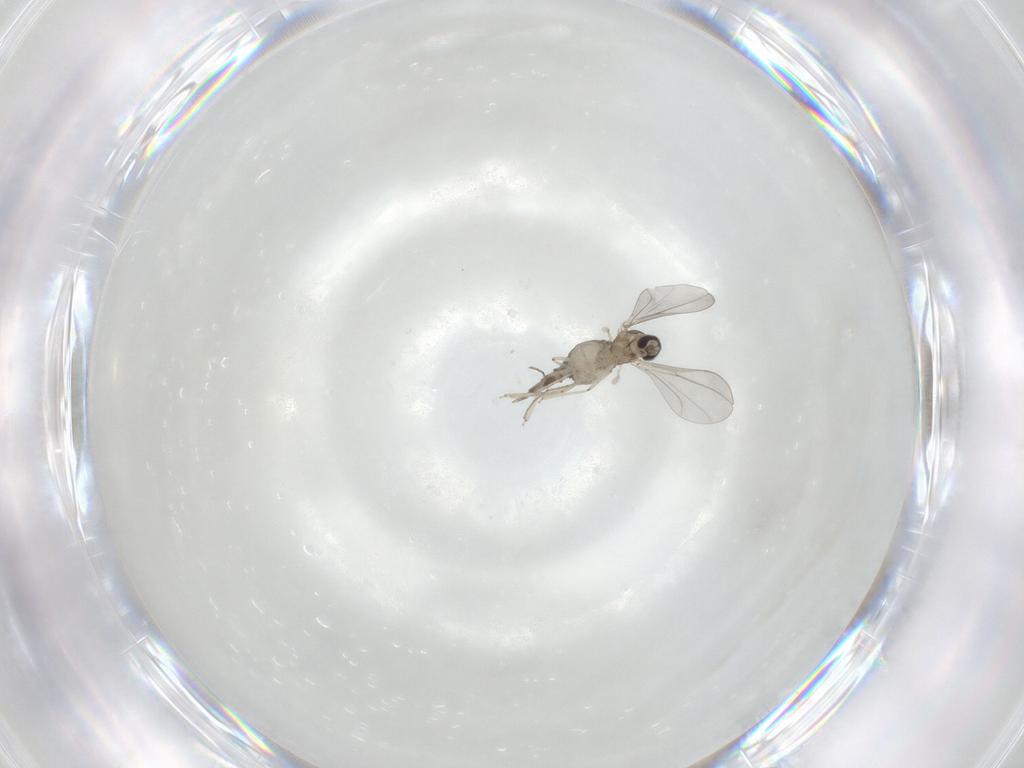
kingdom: Animalia
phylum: Arthropoda
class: Insecta
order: Diptera
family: Cecidomyiidae
